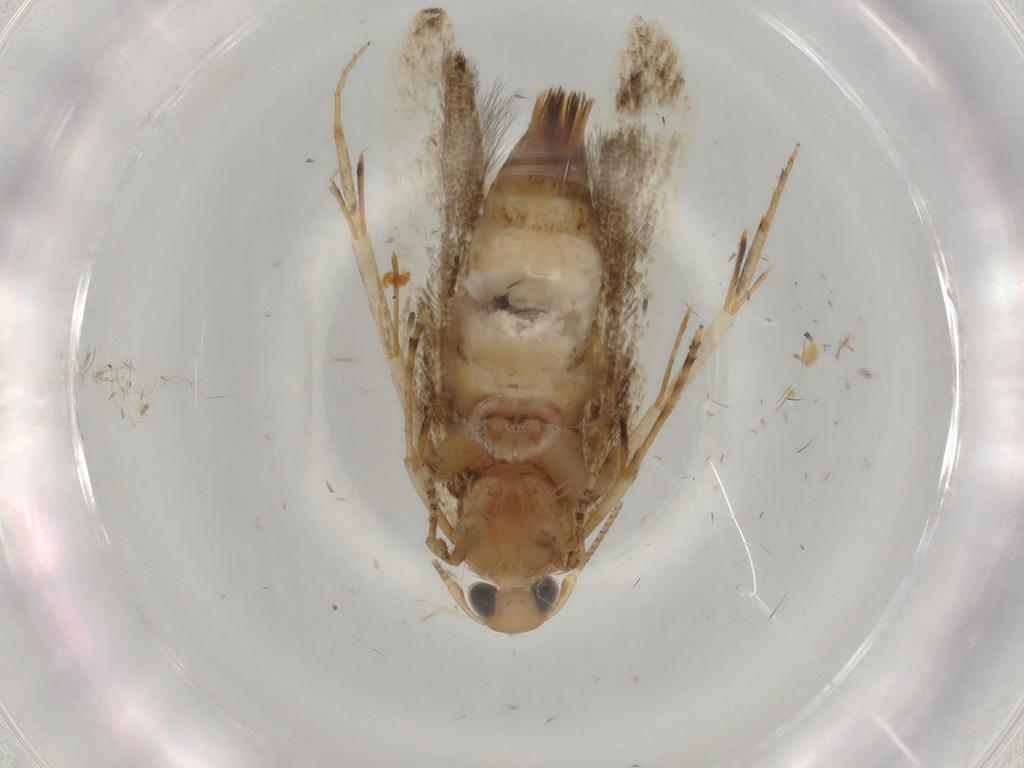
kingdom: Animalia
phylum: Arthropoda
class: Insecta
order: Lepidoptera
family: Cosmopterigidae
